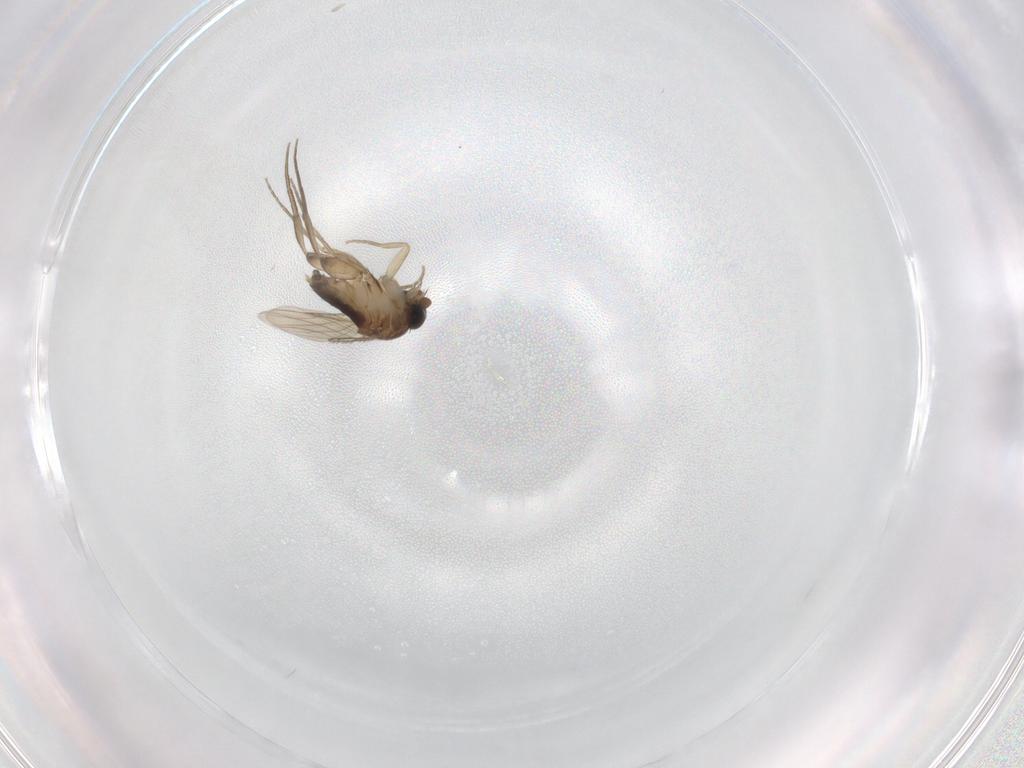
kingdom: Animalia
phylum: Arthropoda
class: Insecta
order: Diptera
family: Phoridae
